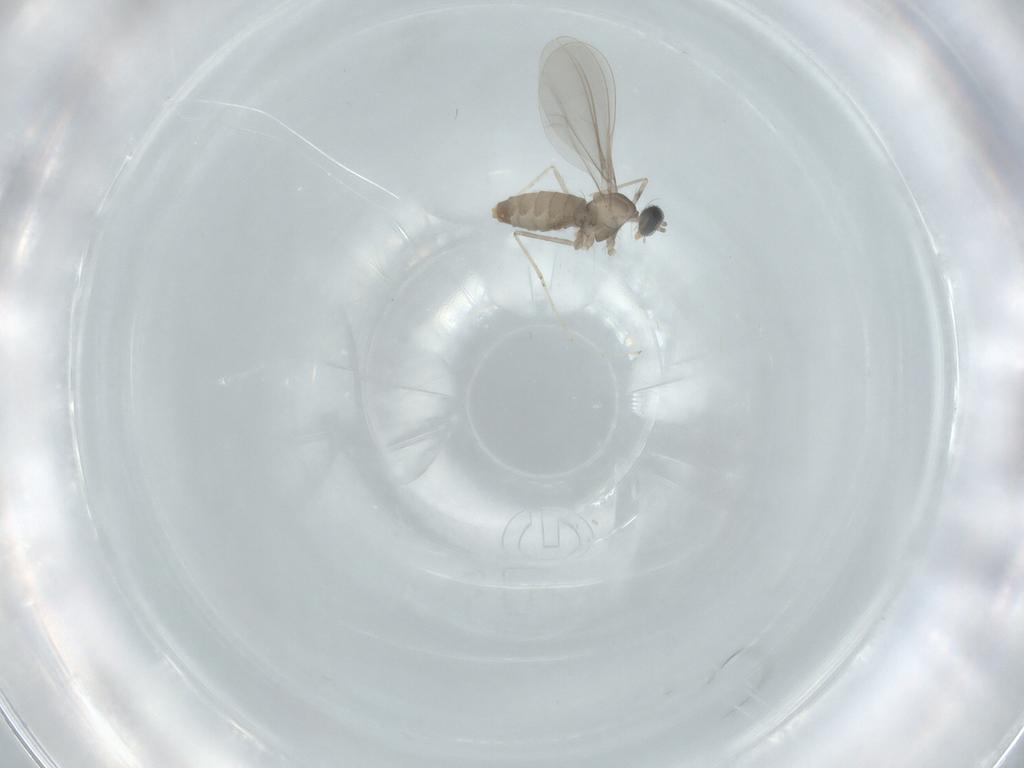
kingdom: Animalia
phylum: Arthropoda
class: Insecta
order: Diptera
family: Cecidomyiidae
